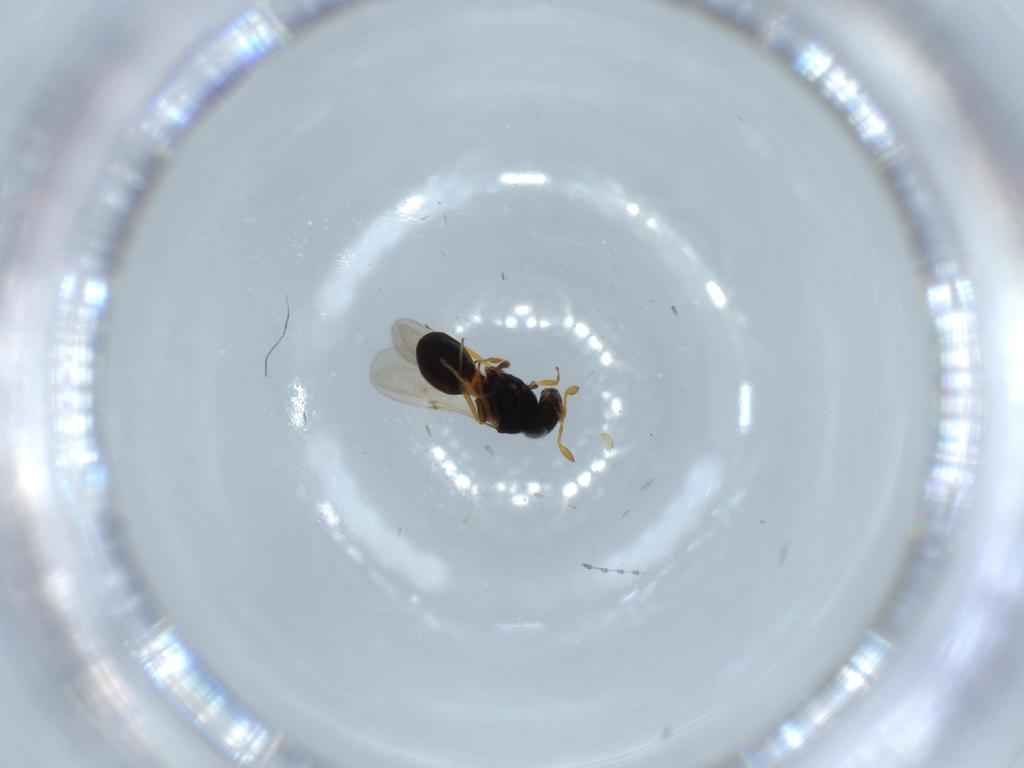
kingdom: Animalia
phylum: Arthropoda
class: Insecta
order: Hymenoptera
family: Scelionidae
